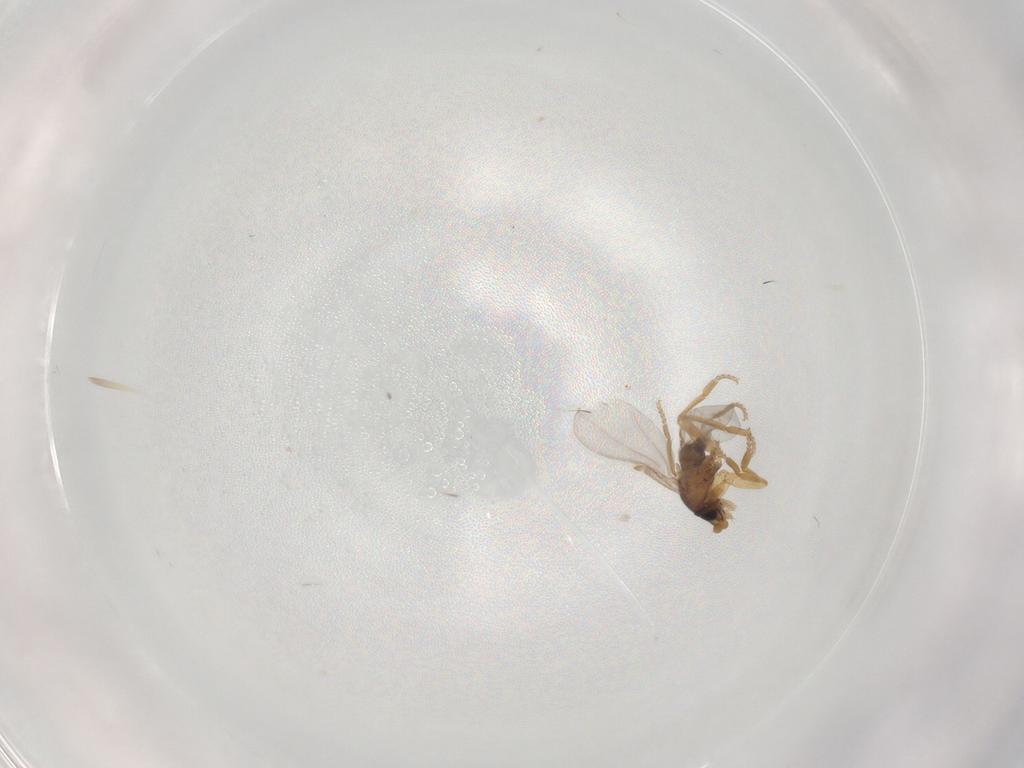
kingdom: Animalia
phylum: Arthropoda
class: Insecta
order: Diptera
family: Phoridae
